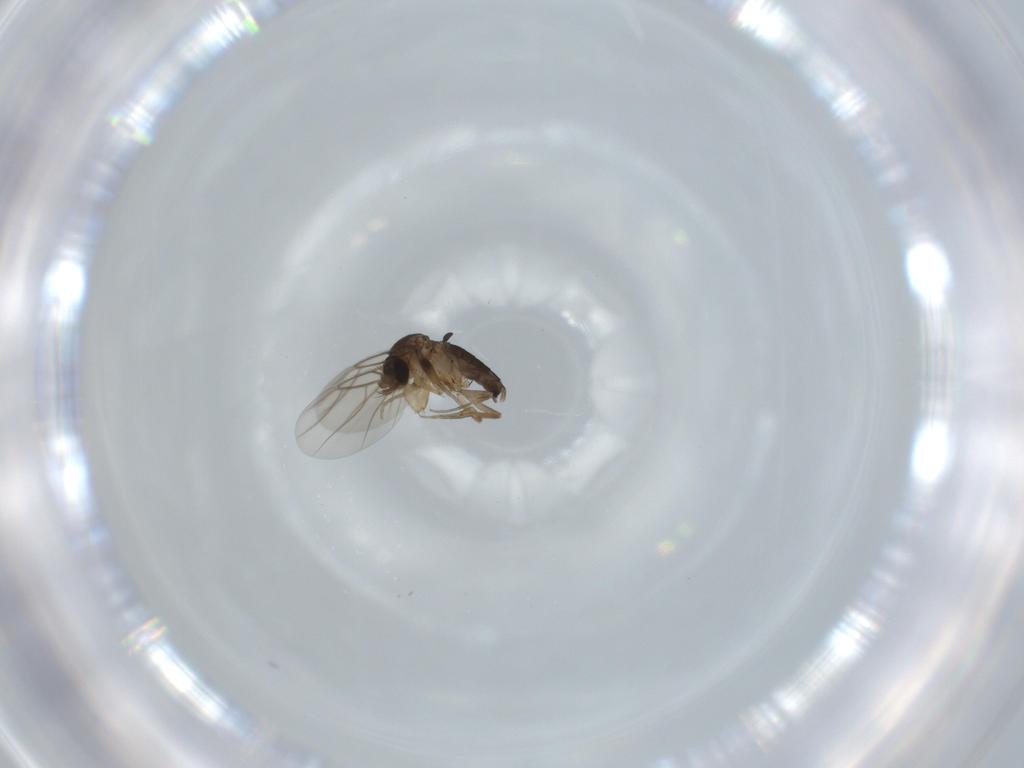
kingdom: Animalia
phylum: Arthropoda
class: Insecta
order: Diptera
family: Phoridae
